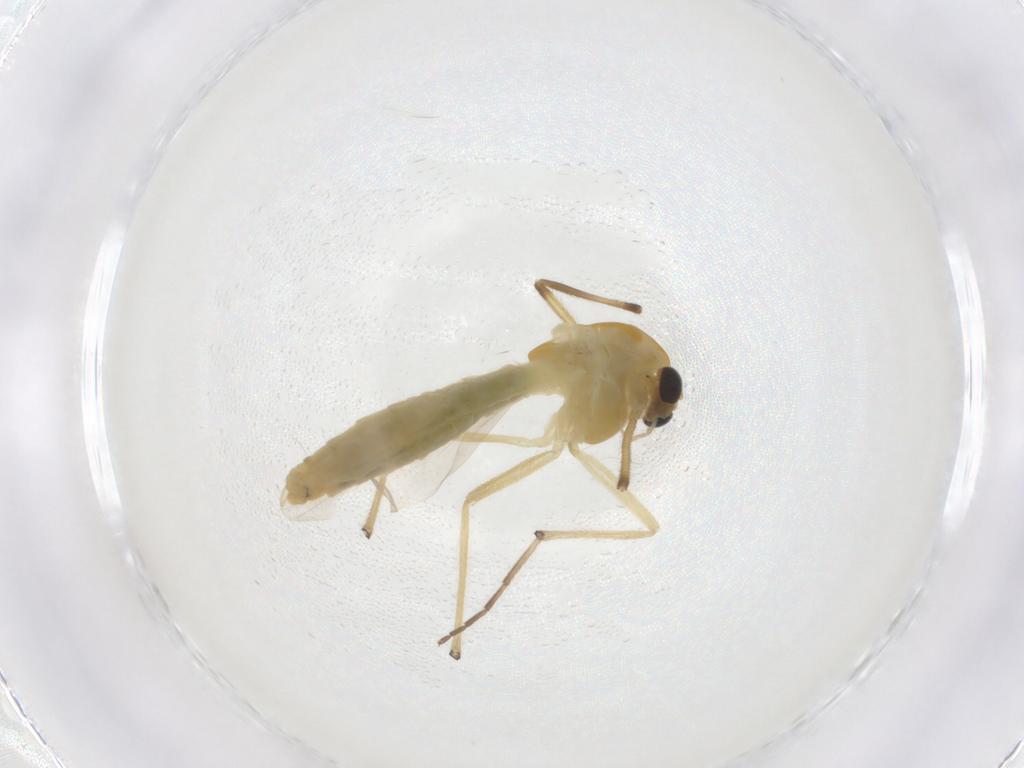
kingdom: Animalia
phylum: Arthropoda
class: Insecta
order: Diptera
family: Chironomidae
